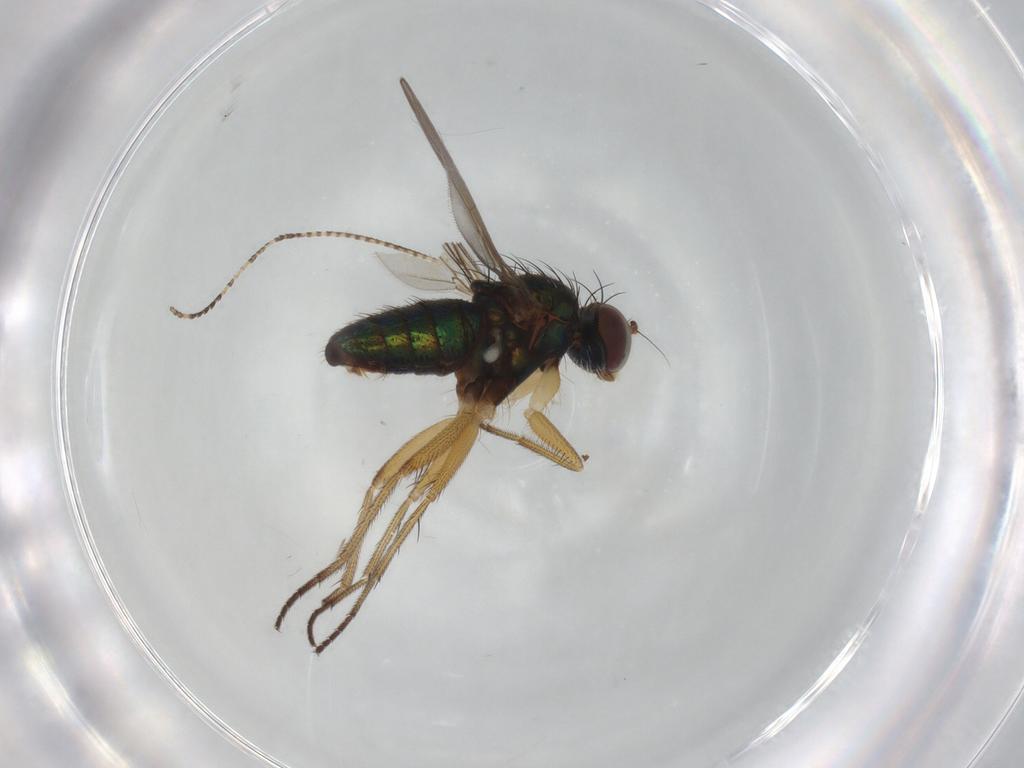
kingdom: Animalia
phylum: Arthropoda
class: Insecta
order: Diptera
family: Dolichopodidae
